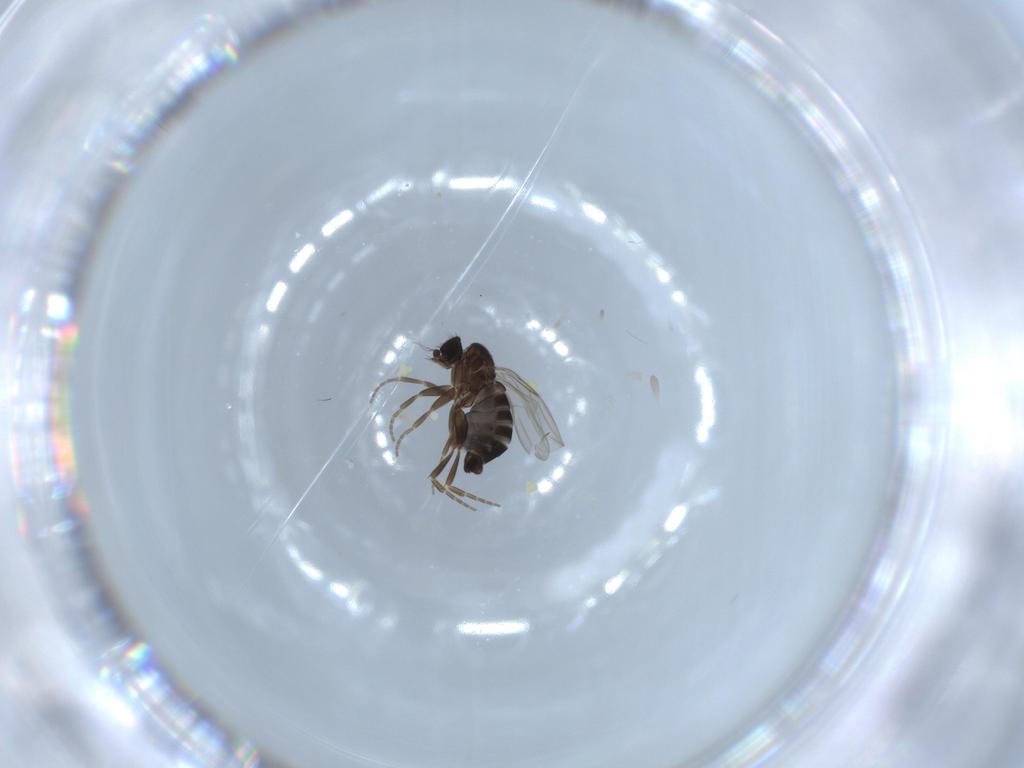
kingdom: Animalia
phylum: Arthropoda
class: Insecta
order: Diptera
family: Phoridae
